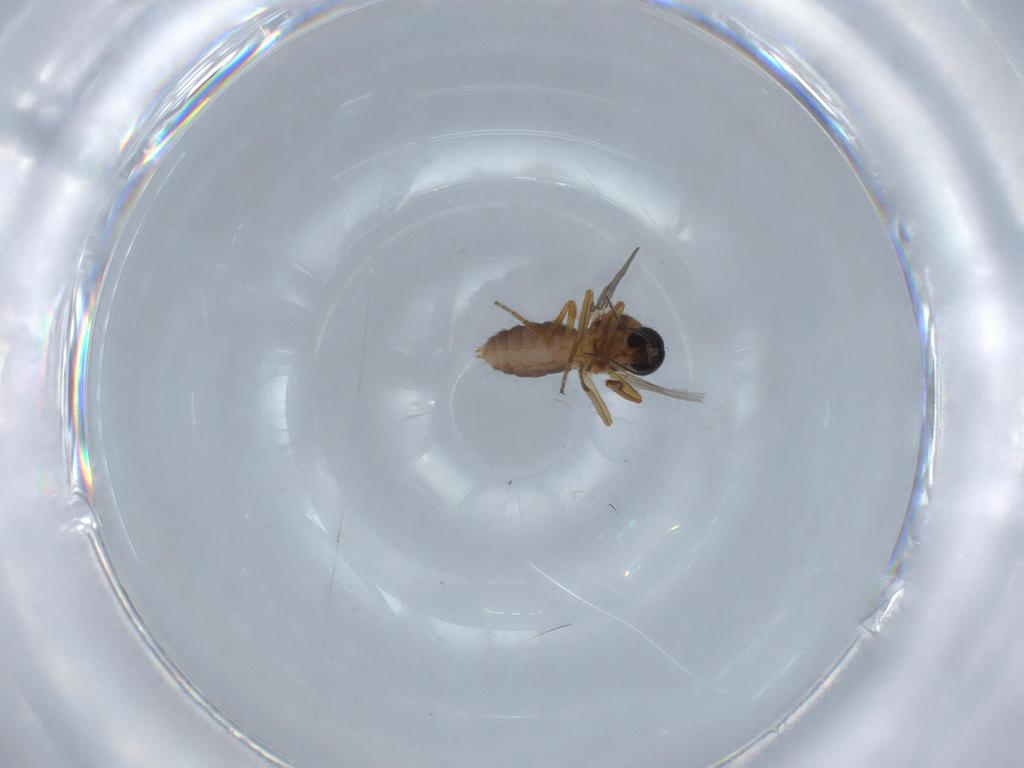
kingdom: Animalia
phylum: Arthropoda
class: Insecta
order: Diptera
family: Ceratopogonidae
